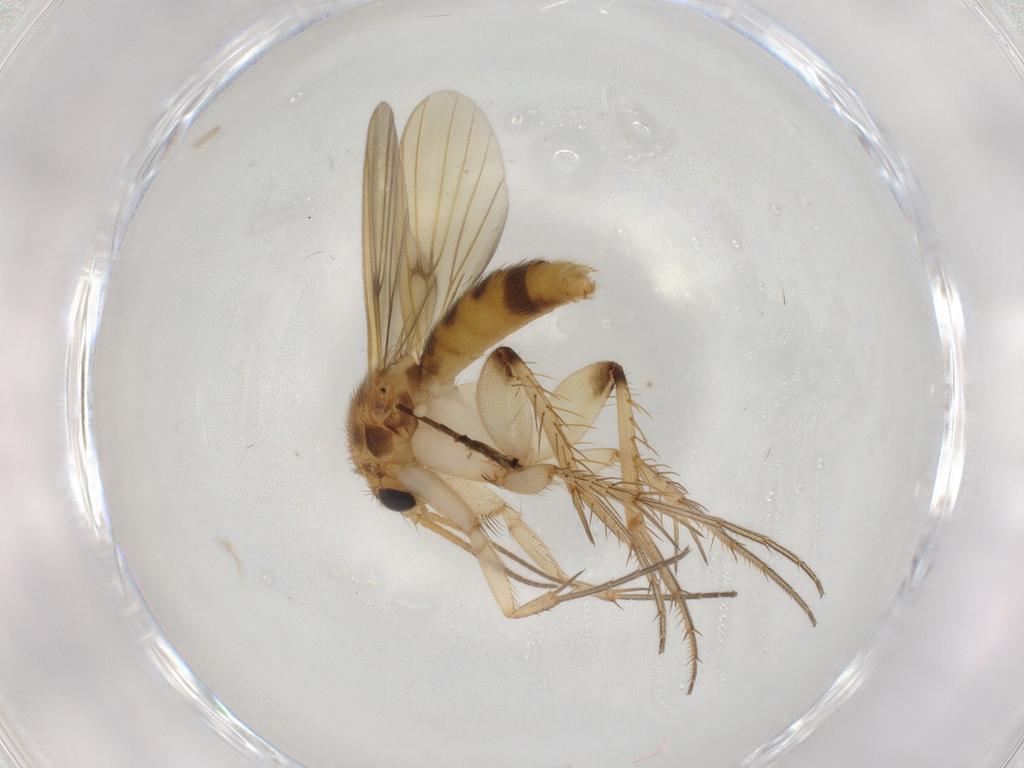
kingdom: Animalia
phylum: Arthropoda
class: Insecta
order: Diptera
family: Mycetophilidae
